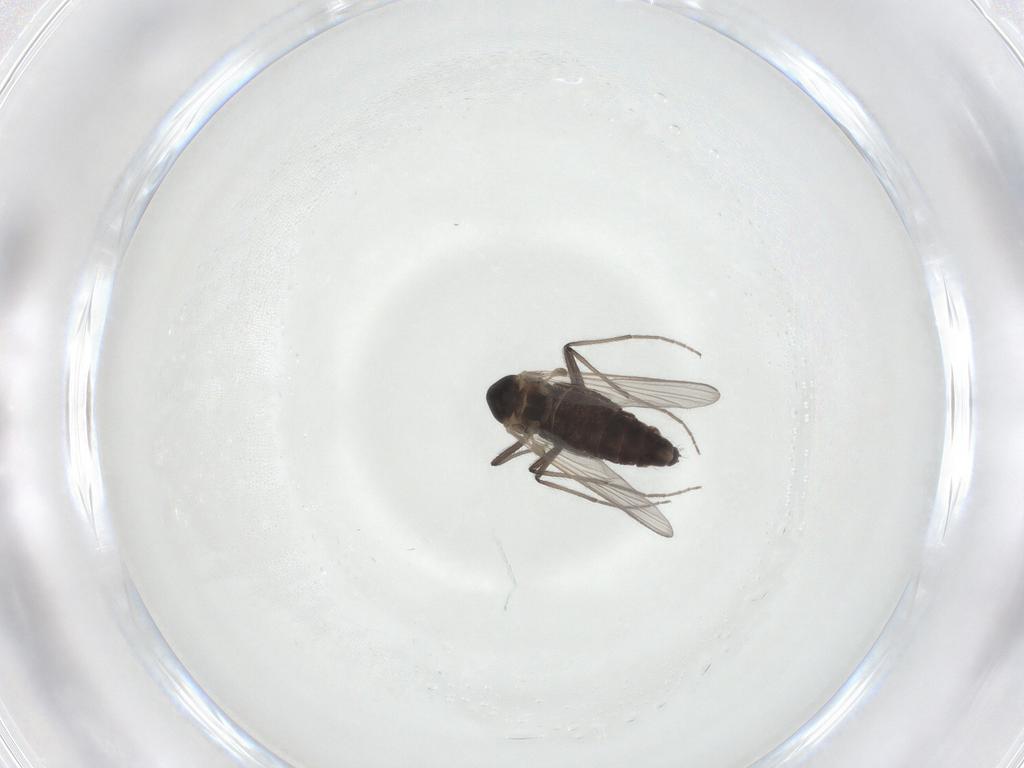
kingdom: Animalia
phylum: Arthropoda
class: Insecta
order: Diptera
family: Chironomidae
